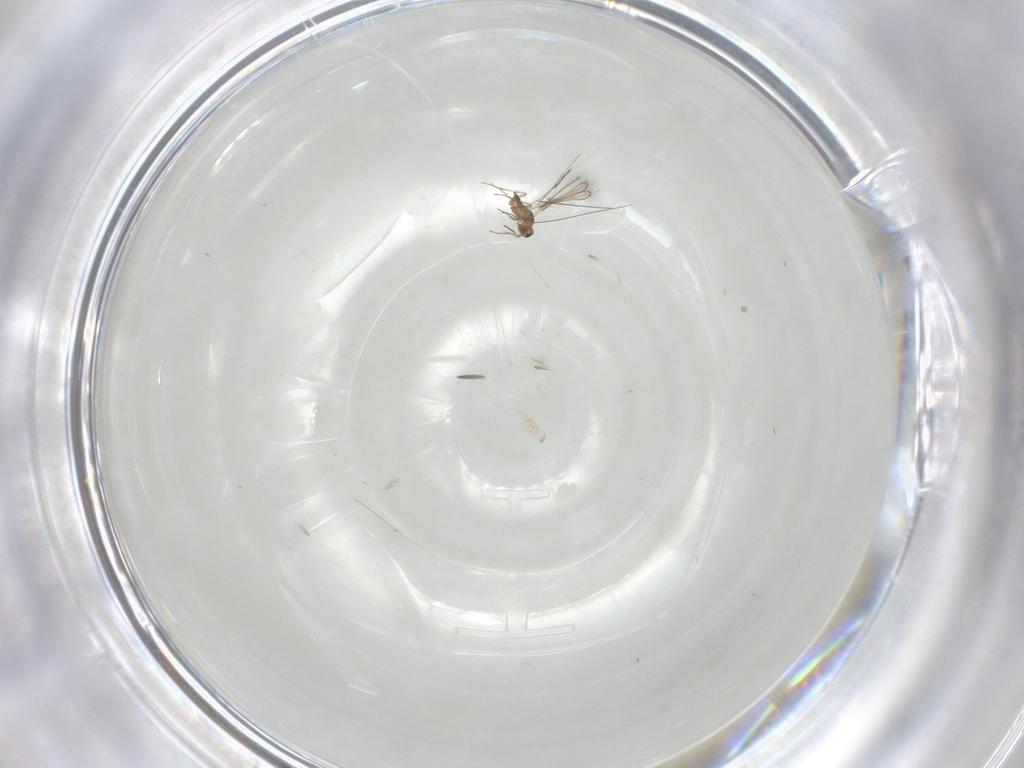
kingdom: Animalia
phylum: Arthropoda
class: Insecta
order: Hymenoptera
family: Mymaridae
